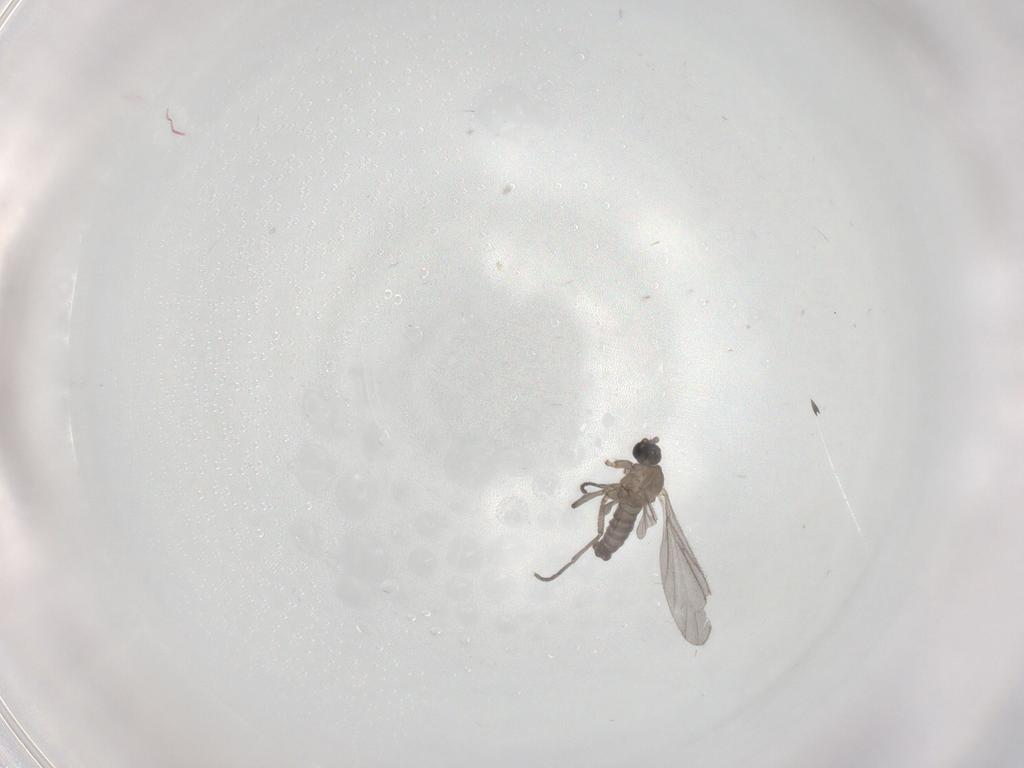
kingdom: Animalia
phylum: Arthropoda
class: Insecta
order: Diptera
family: Sciaridae
